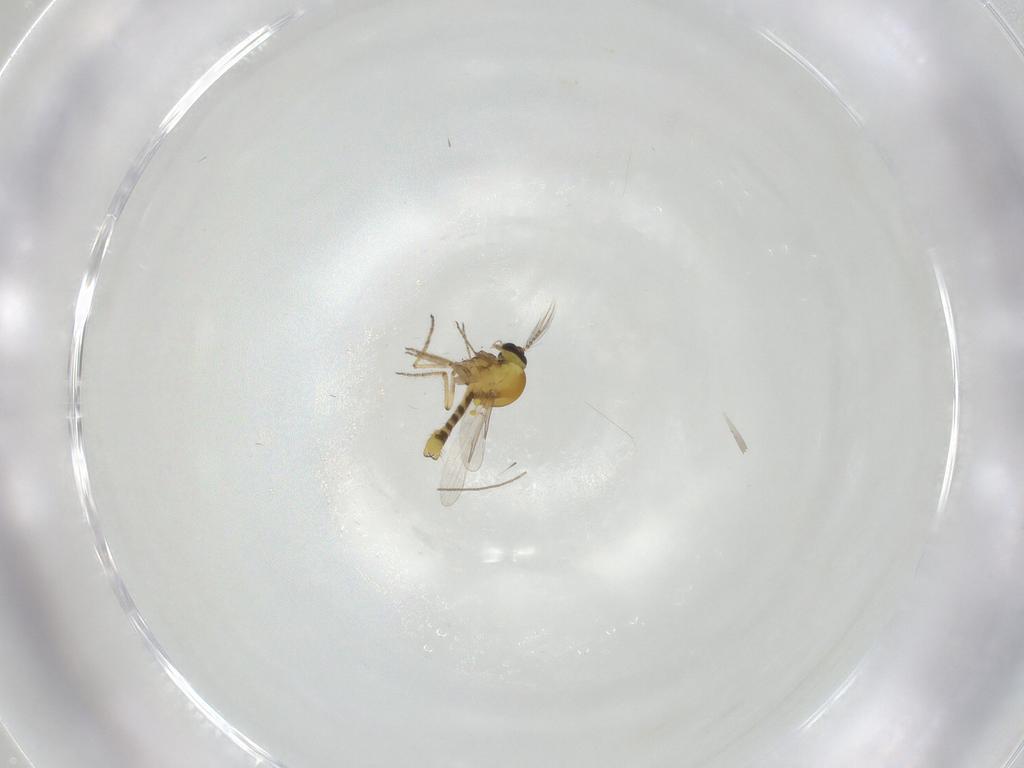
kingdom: Animalia
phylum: Arthropoda
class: Insecta
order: Diptera
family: Ceratopogonidae
